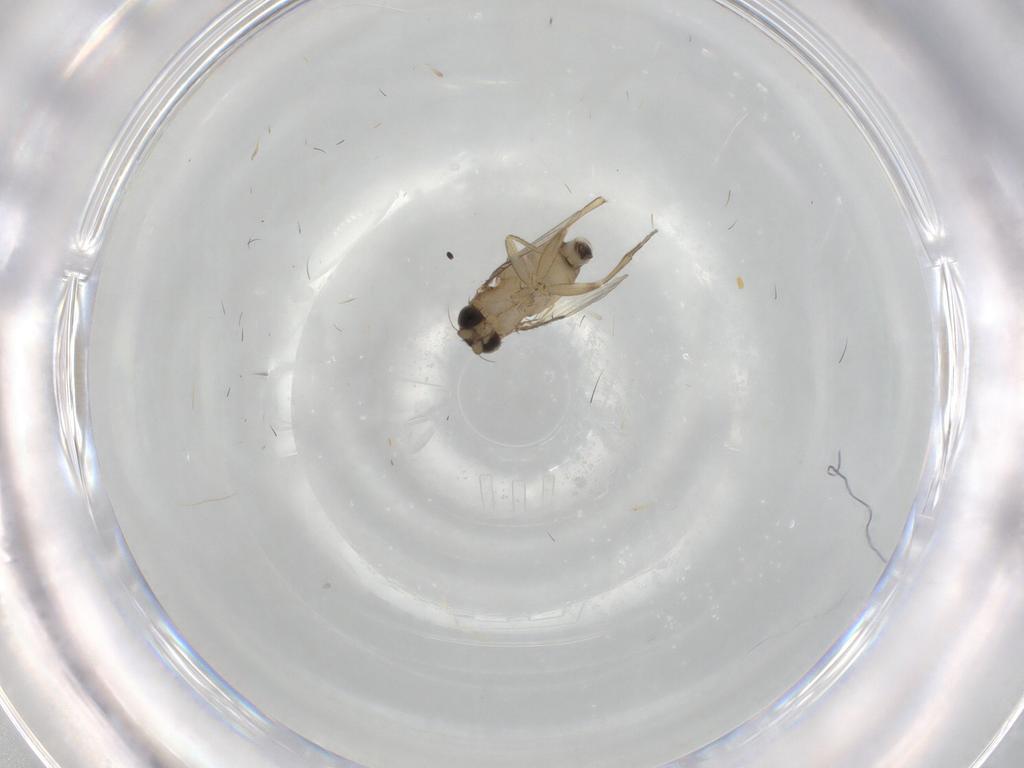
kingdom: Animalia
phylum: Arthropoda
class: Insecta
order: Diptera
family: Phoridae
